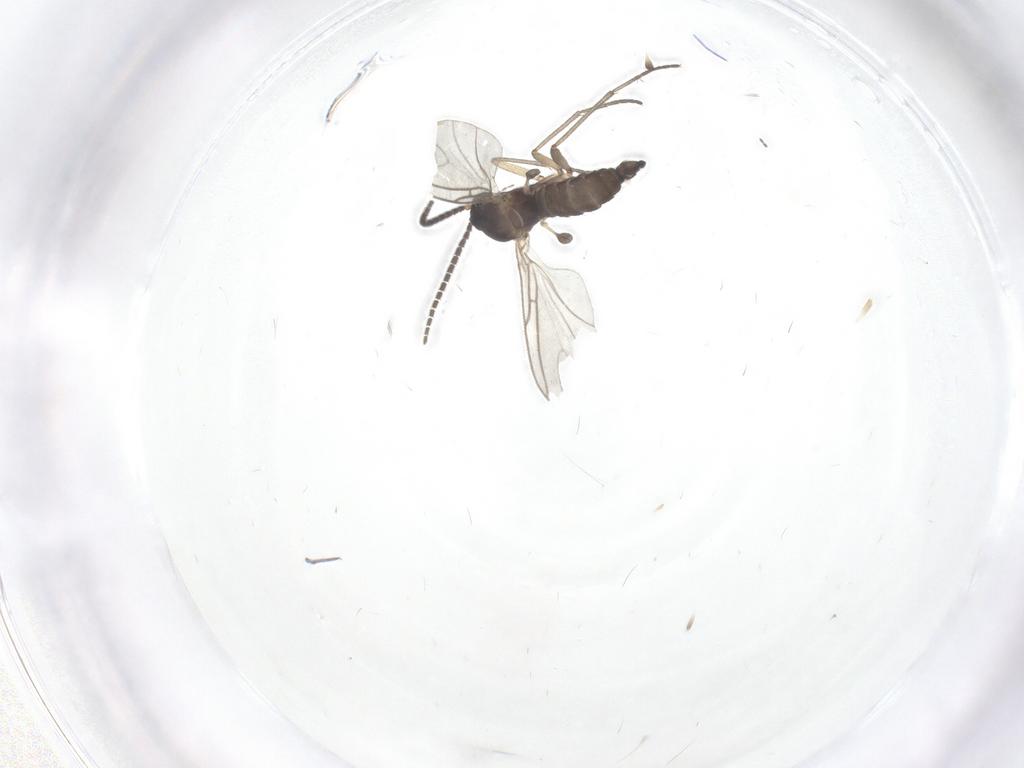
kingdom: Animalia
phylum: Arthropoda
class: Insecta
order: Diptera
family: Sciaridae
